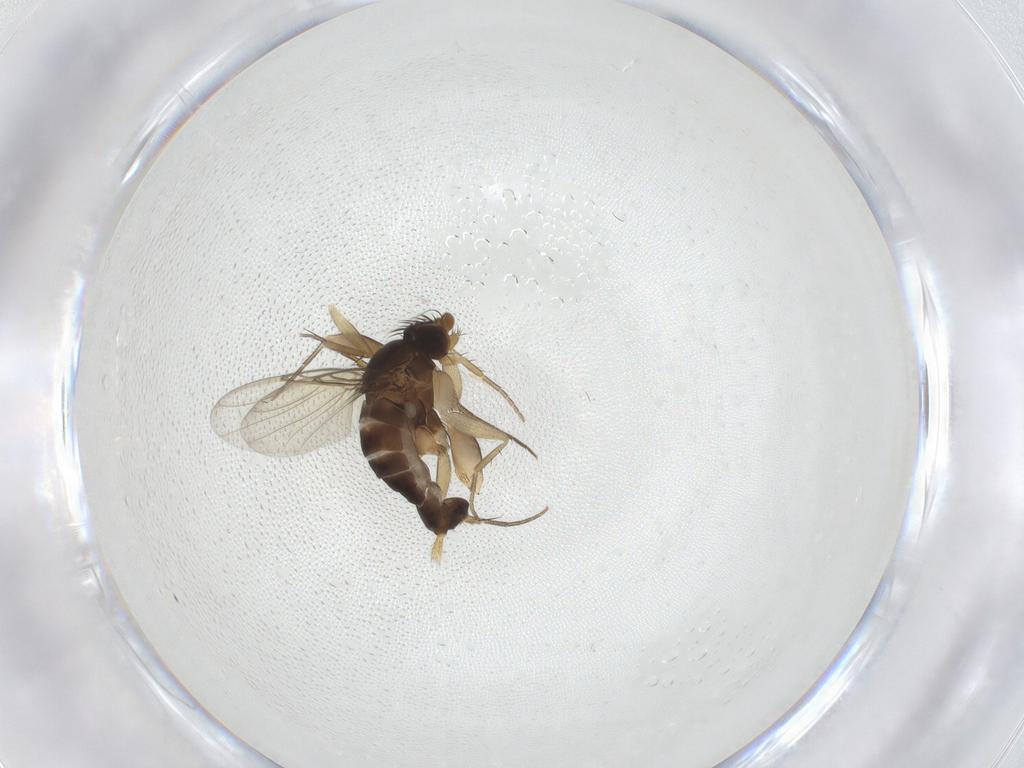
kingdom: Animalia
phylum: Arthropoda
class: Insecta
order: Diptera
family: Phoridae
